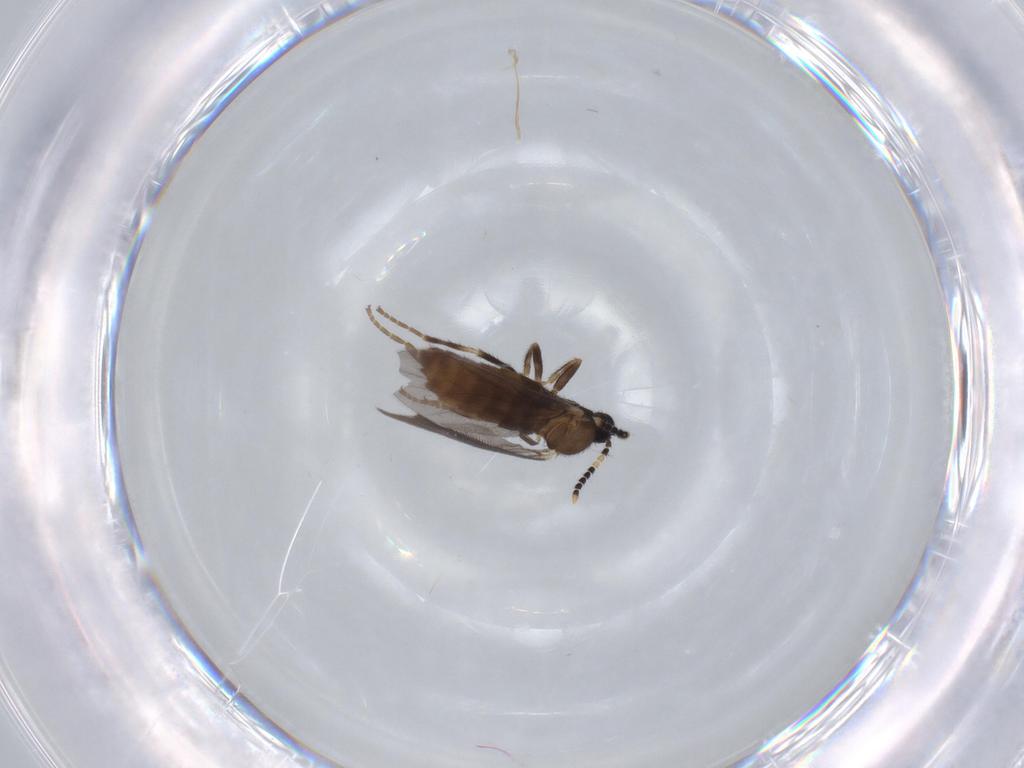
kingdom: Animalia
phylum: Arthropoda
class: Insecta
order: Diptera
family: Scatopsidae
